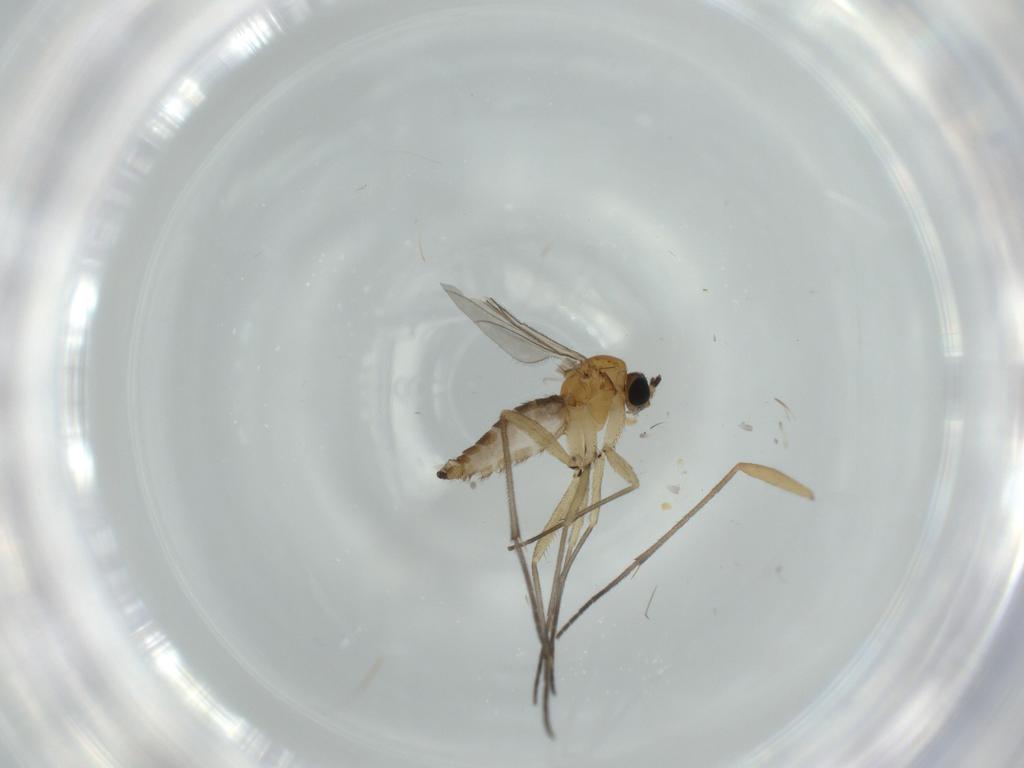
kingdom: Animalia
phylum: Arthropoda
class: Insecta
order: Diptera
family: Sciaridae
